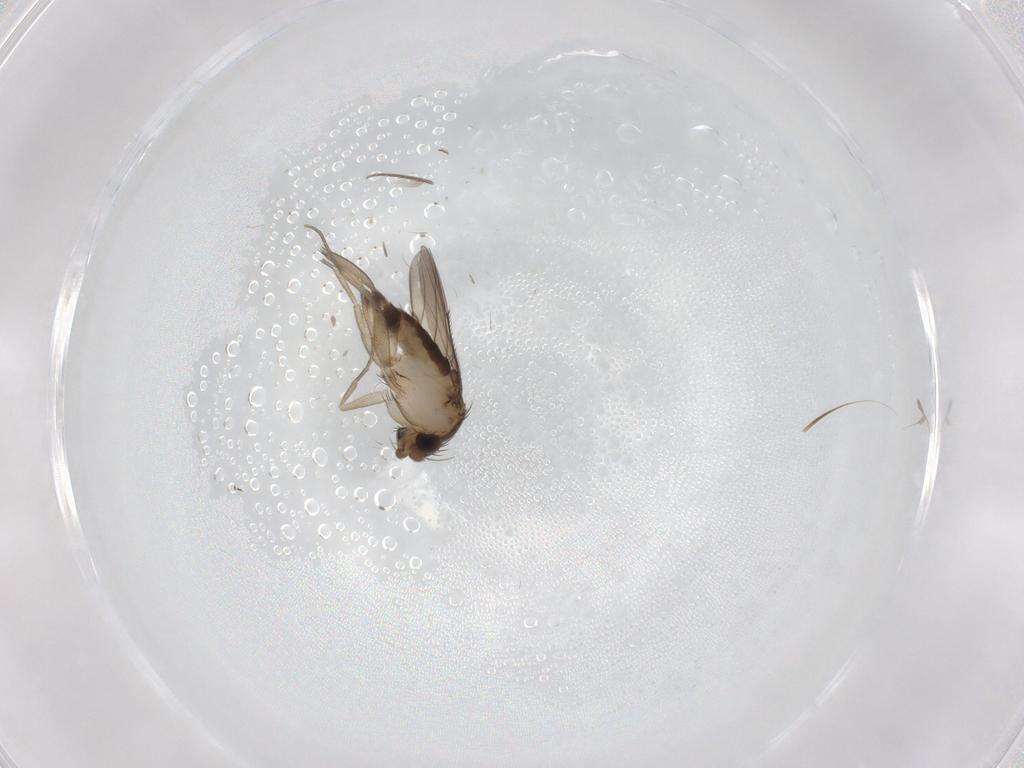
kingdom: Animalia
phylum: Arthropoda
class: Insecta
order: Diptera
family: Phoridae
